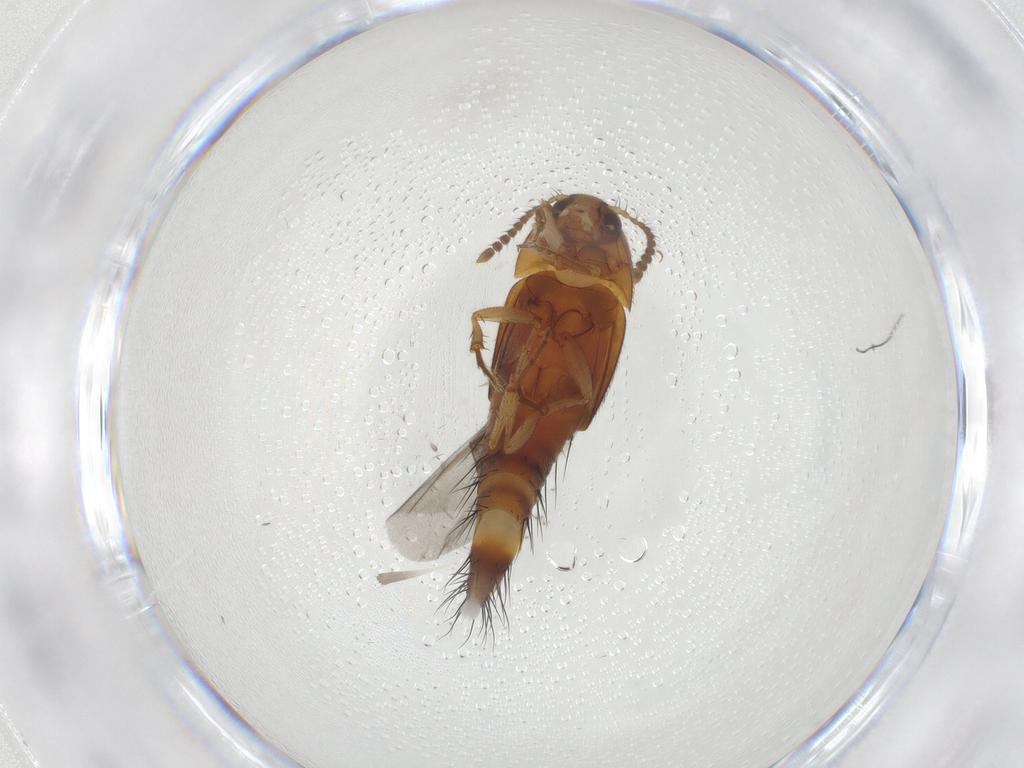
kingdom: Animalia
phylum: Arthropoda
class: Insecta
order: Coleoptera
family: Staphylinidae
